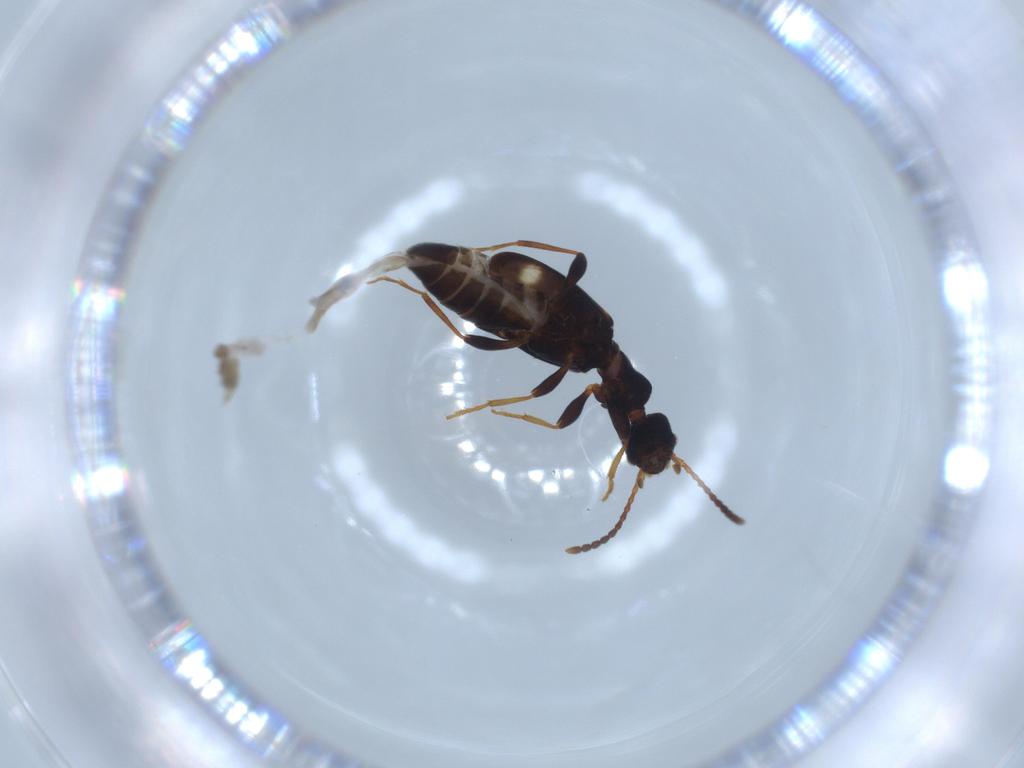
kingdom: Animalia
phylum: Arthropoda
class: Insecta
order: Coleoptera
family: Anthicidae
